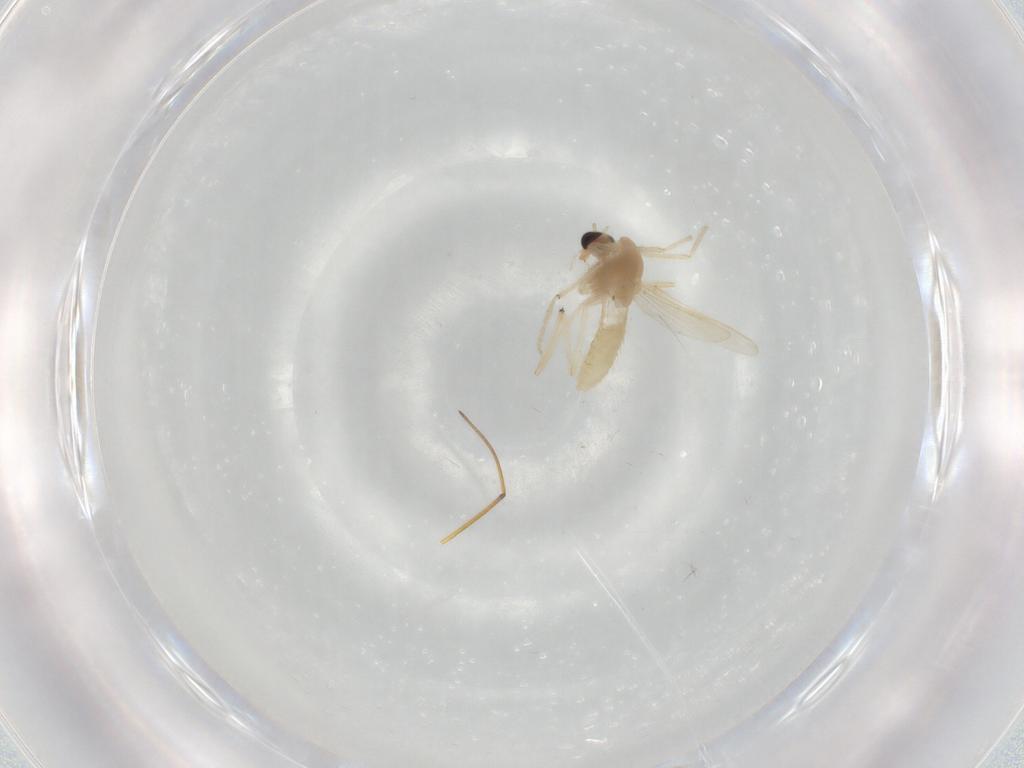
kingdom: Animalia
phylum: Arthropoda
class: Insecta
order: Diptera
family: Chironomidae
